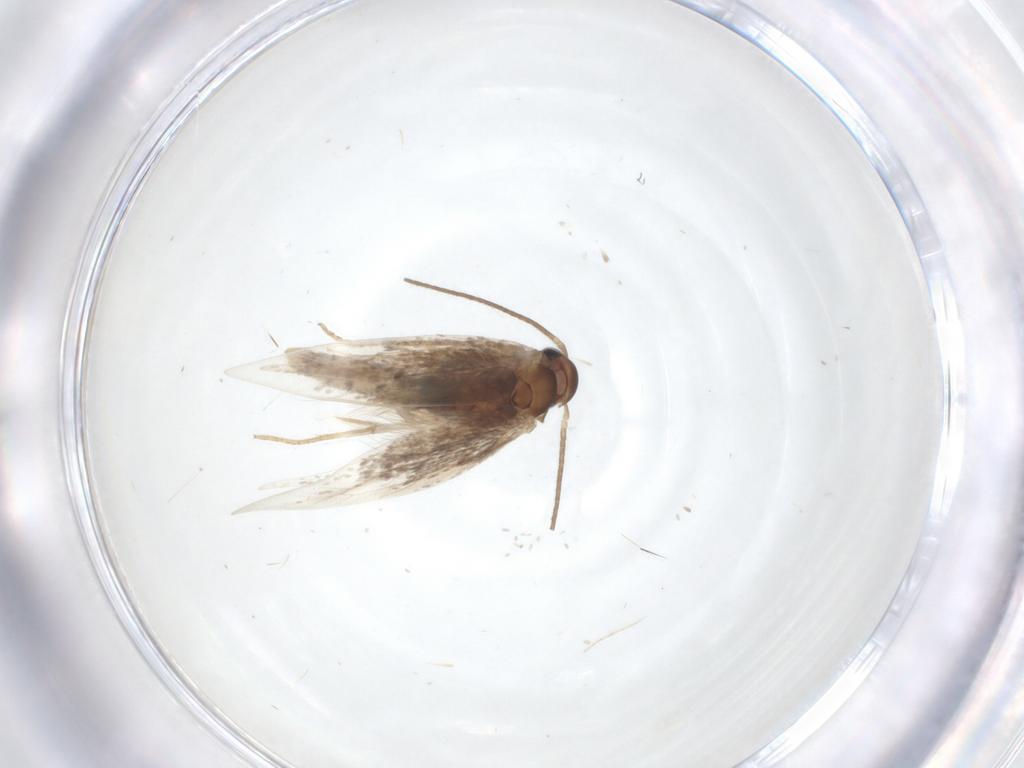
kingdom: Animalia
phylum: Arthropoda
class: Insecta
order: Lepidoptera
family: Elachistidae
